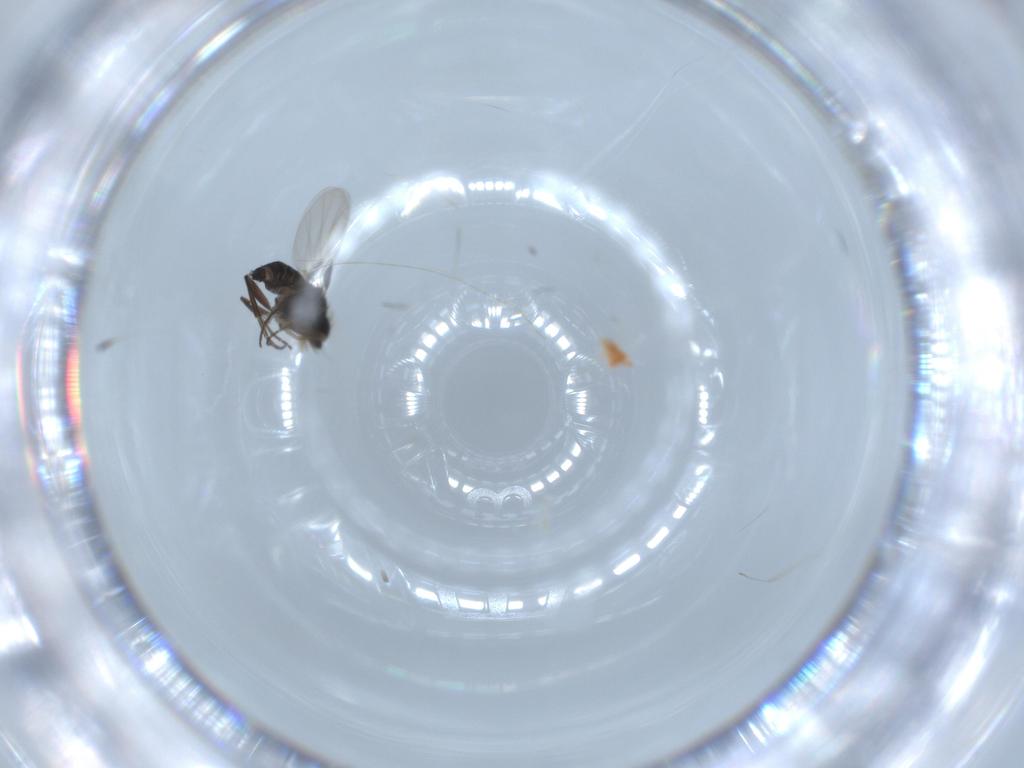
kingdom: Animalia
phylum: Arthropoda
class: Insecta
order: Diptera
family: Phoridae
